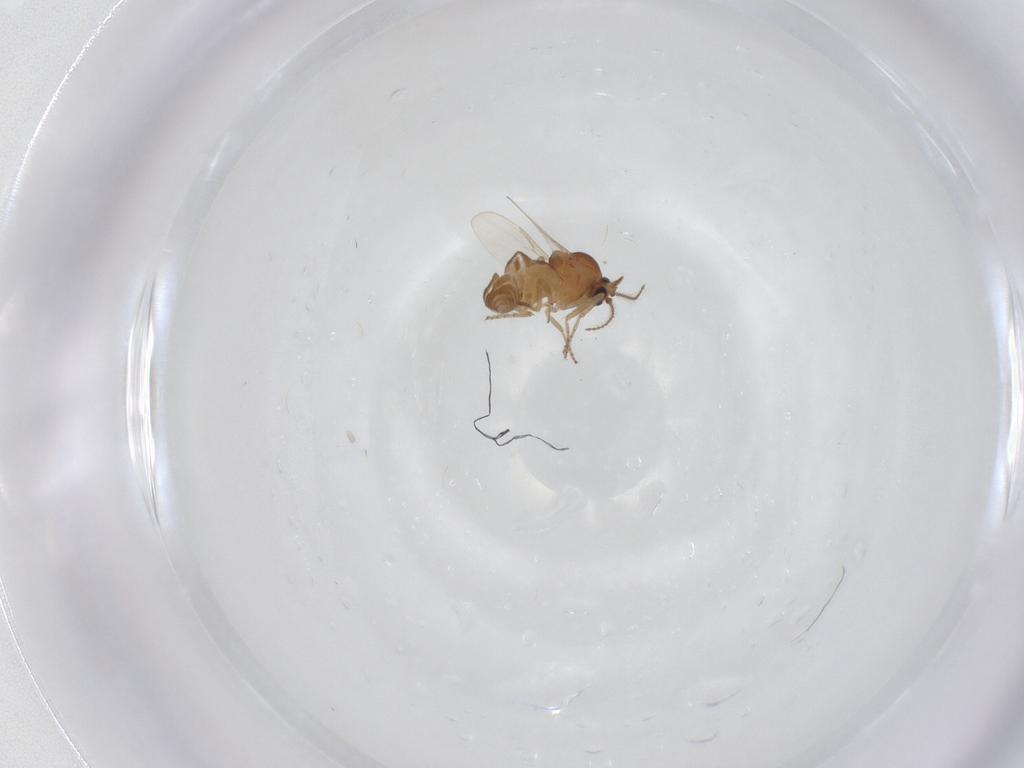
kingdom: Animalia
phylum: Arthropoda
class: Insecta
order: Diptera
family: Ceratopogonidae
